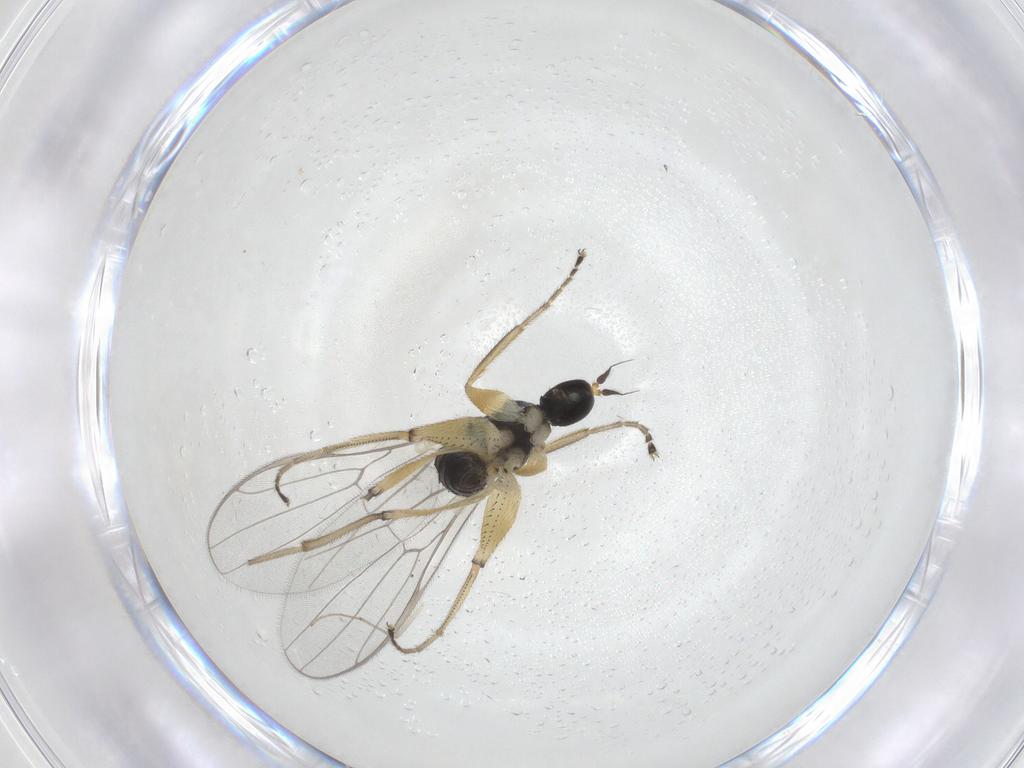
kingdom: Animalia
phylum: Arthropoda
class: Insecta
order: Diptera
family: Hybotidae
